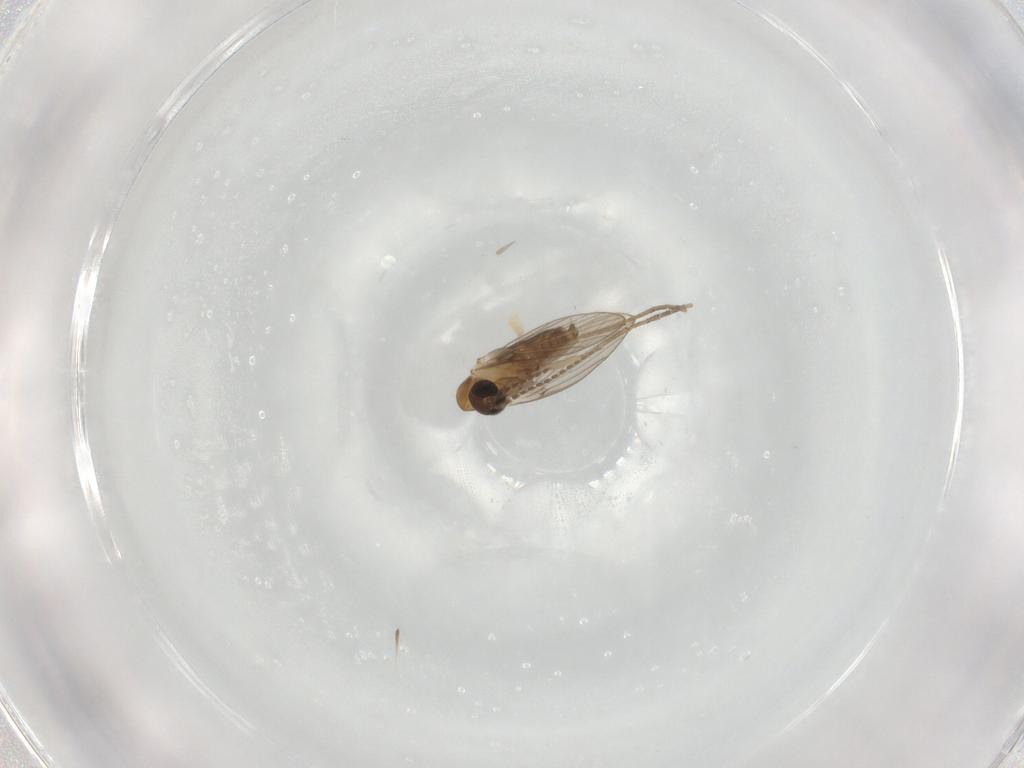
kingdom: Animalia
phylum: Arthropoda
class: Insecta
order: Diptera
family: Psychodidae
